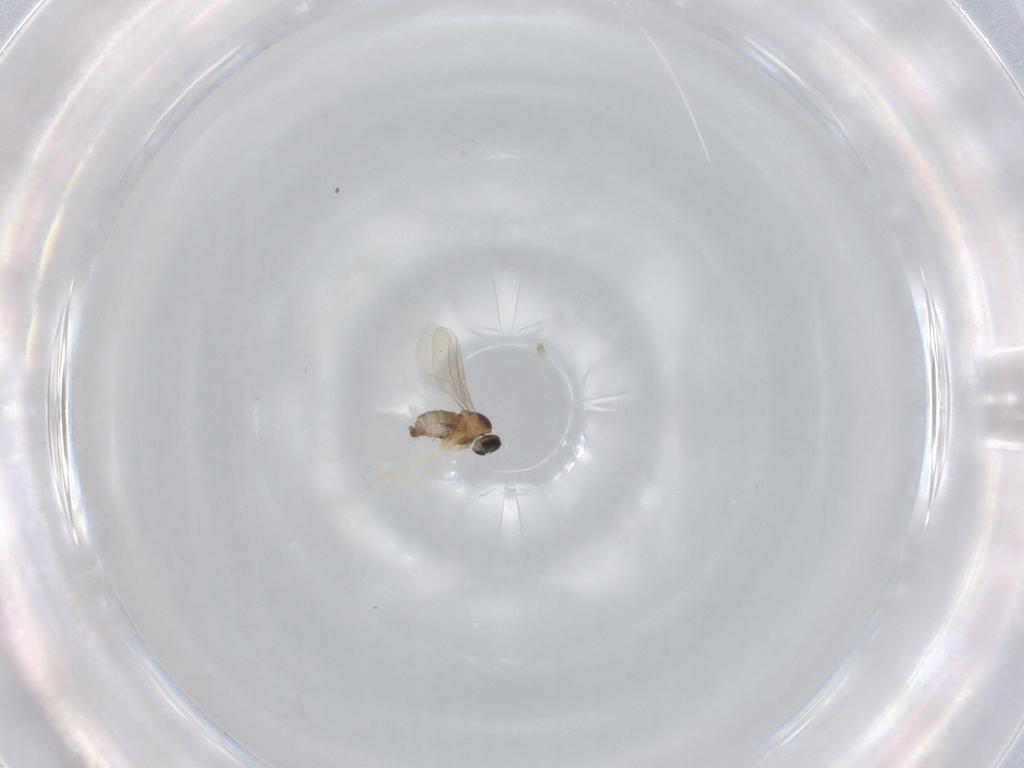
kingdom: Animalia
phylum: Arthropoda
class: Insecta
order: Diptera
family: Cecidomyiidae
